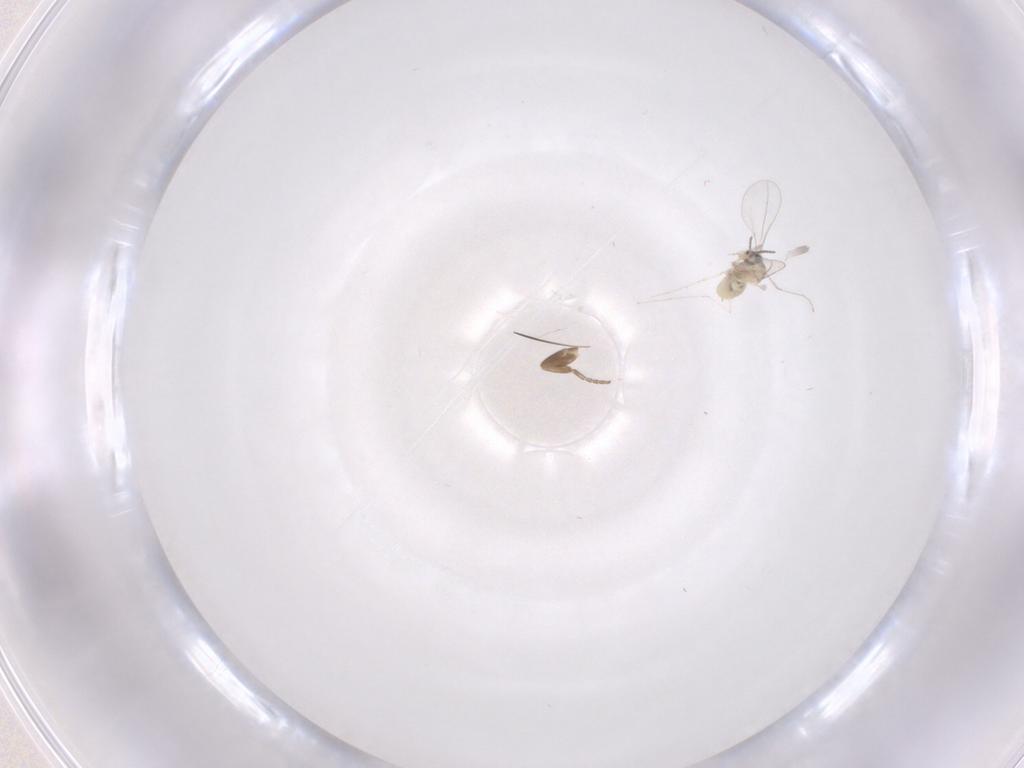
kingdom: Animalia
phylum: Arthropoda
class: Insecta
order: Diptera
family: Cecidomyiidae
